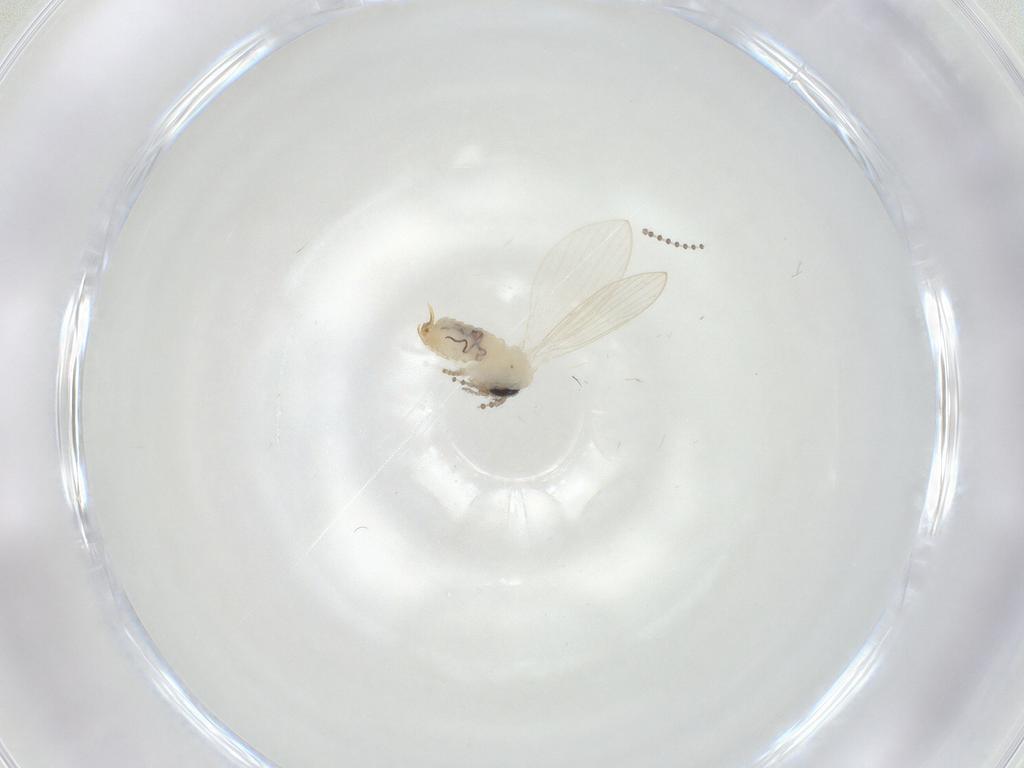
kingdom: Animalia
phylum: Arthropoda
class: Insecta
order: Diptera
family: Psychodidae
